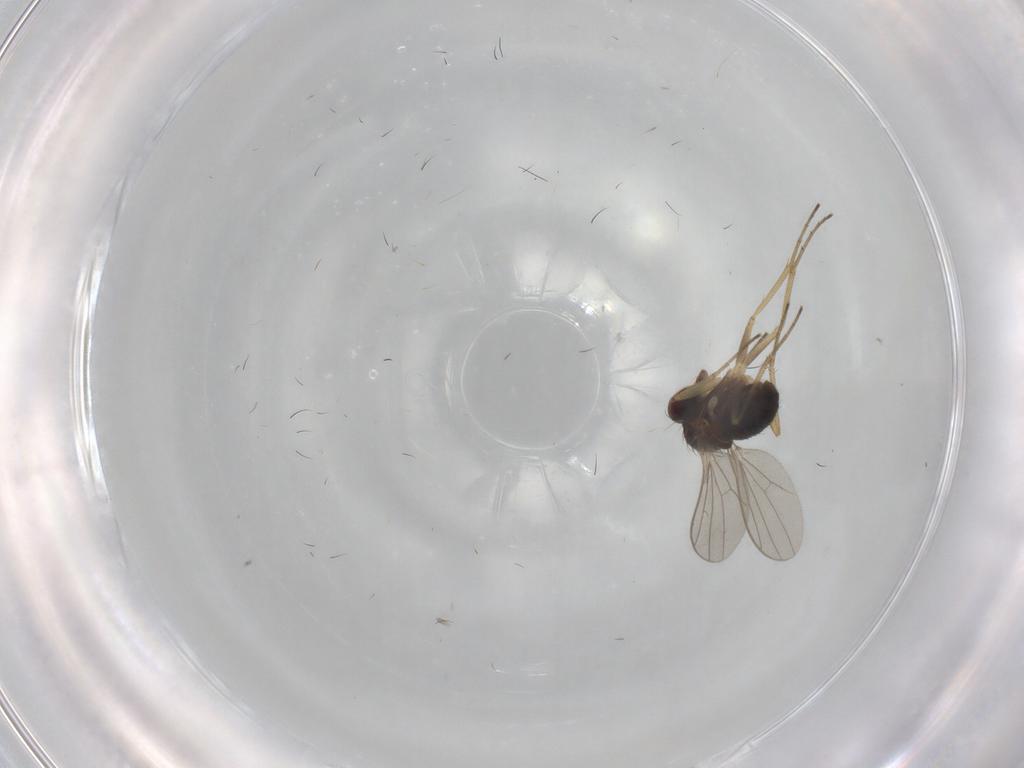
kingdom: Animalia
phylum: Arthropoda
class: Insecta
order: Diptera
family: Dolichopodidae
